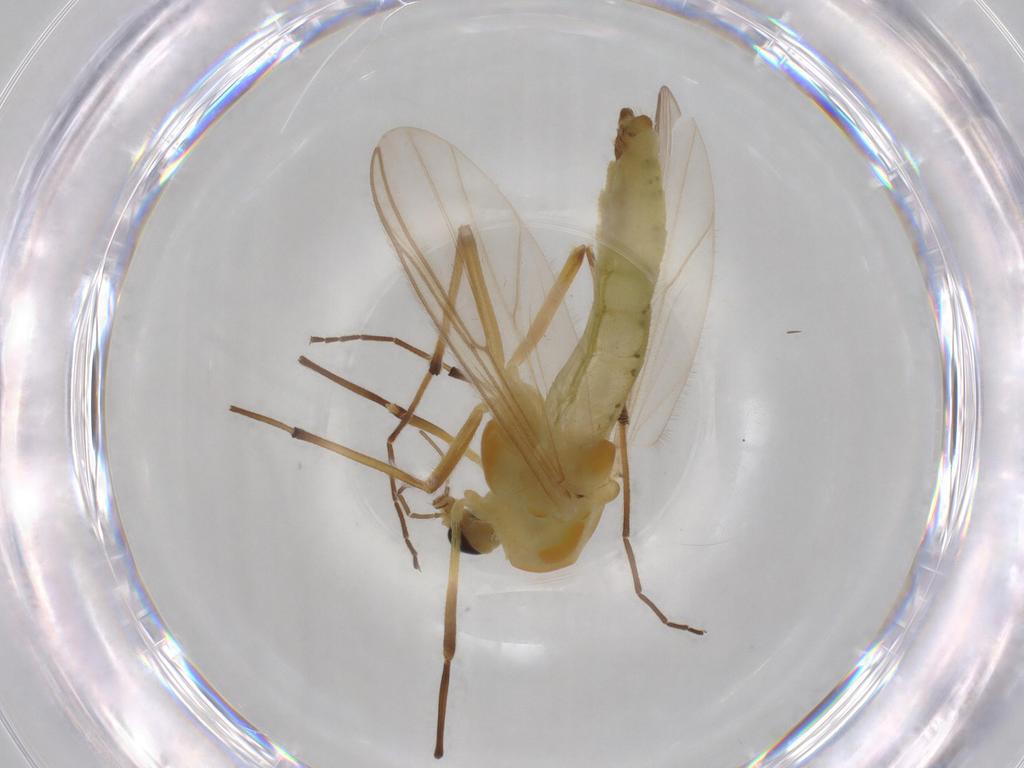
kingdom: Animalia
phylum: Arthropoda
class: Insecta
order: Diptera
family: Chironomidae
